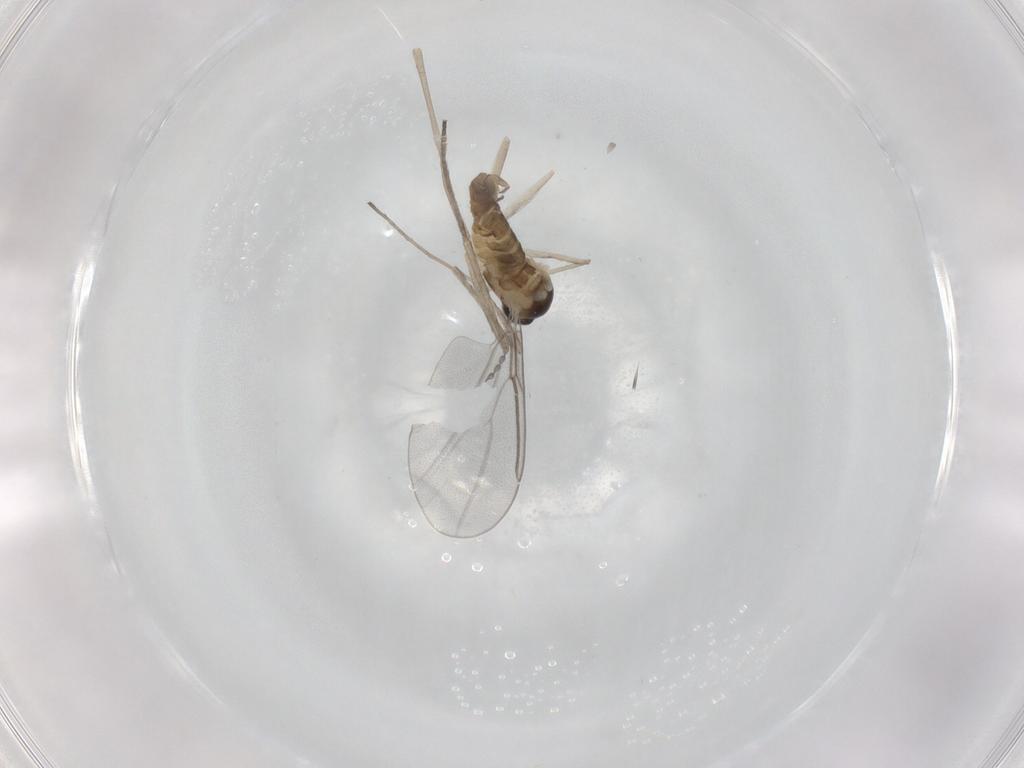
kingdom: Animalia
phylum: Arthropoda
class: Insecta
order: Diptera
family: Cecidomyiidae
